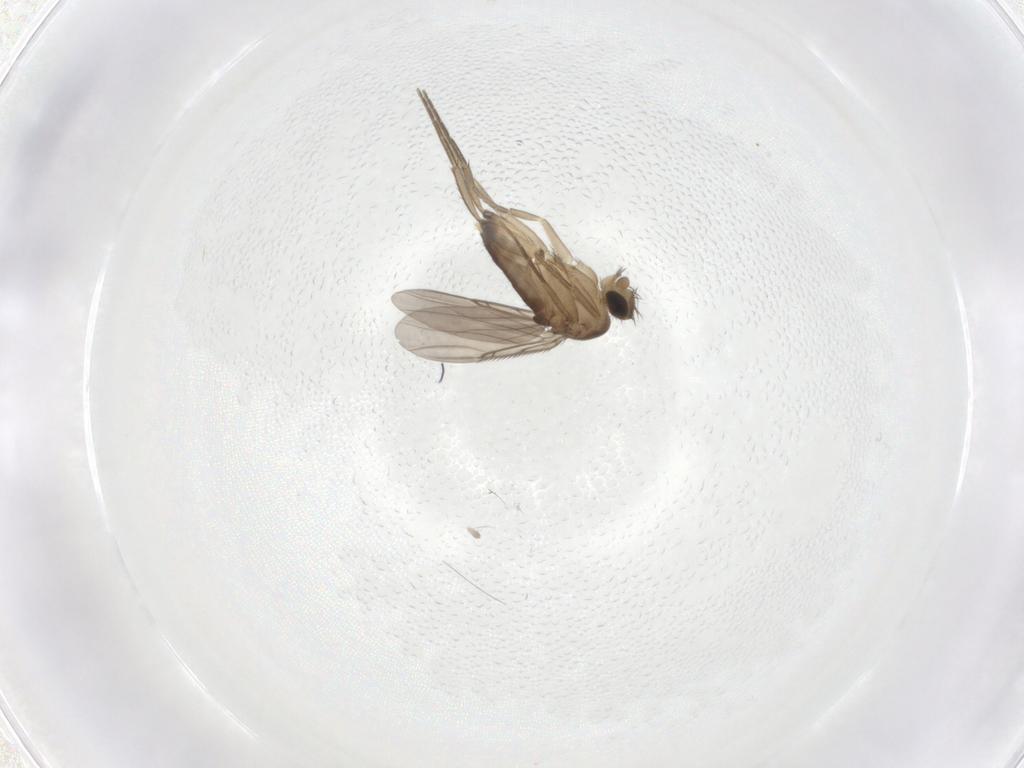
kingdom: Animalia
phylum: Arthropoda
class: Insecta
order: Diptera
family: Phoridae
